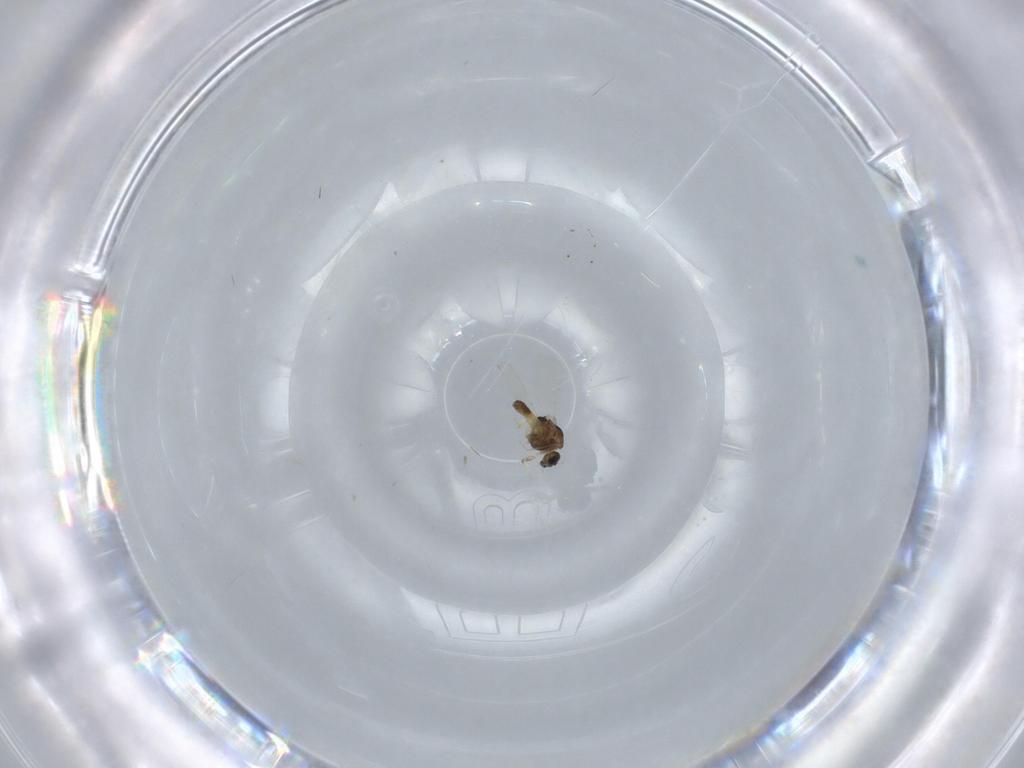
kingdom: Animalia
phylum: Arthropoda
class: Insecta
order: Diptera
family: Chironomidae
